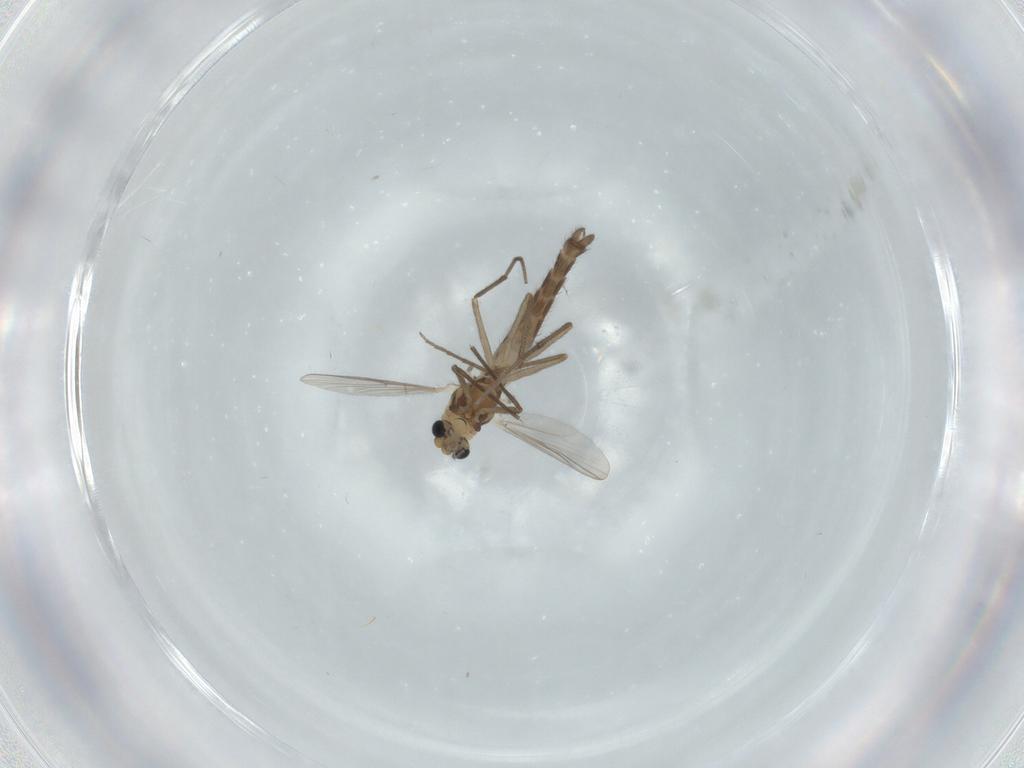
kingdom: Animalia
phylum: Arthropoda
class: Insecta
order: Diptera
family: Chironomidae
